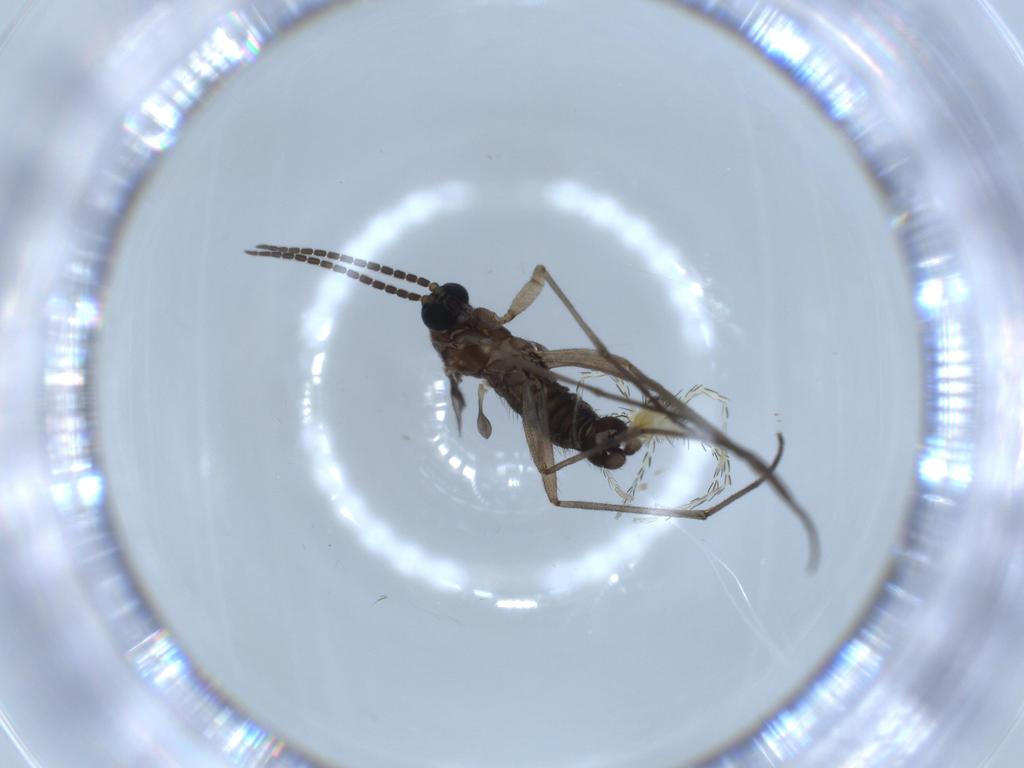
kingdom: Animalia
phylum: Arthropoda
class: Insecta
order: Diptera
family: Sciaridae
